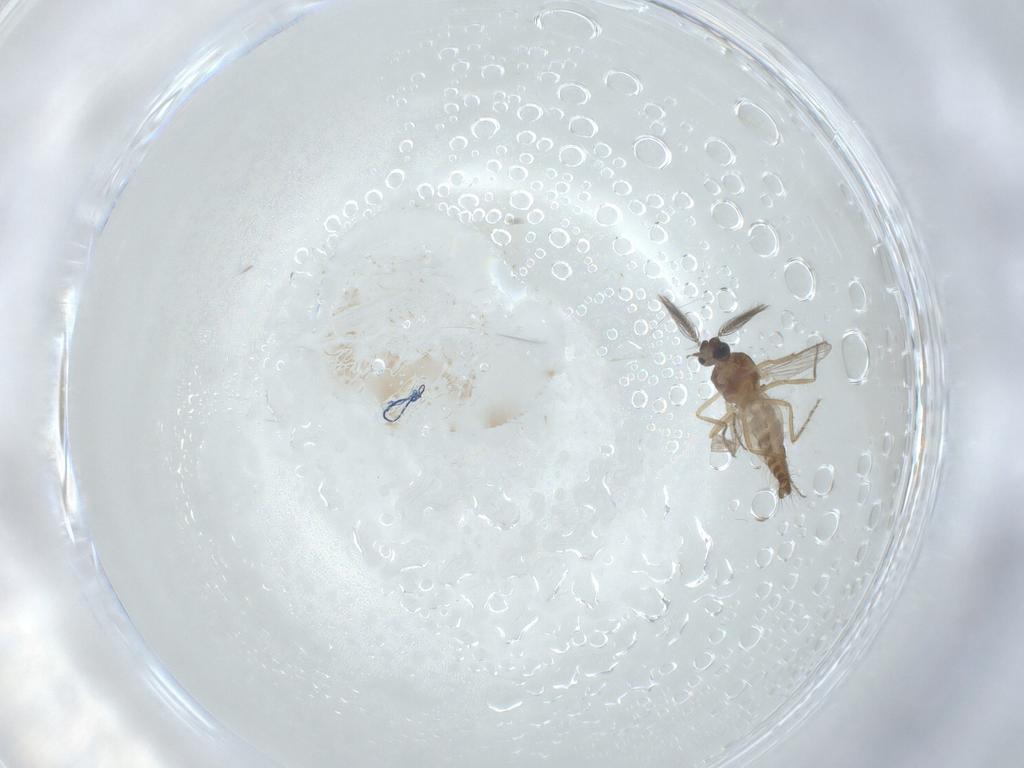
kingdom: Animalia
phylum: Arthropoda
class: Insecta
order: Diptera
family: Ceratopogonidae
